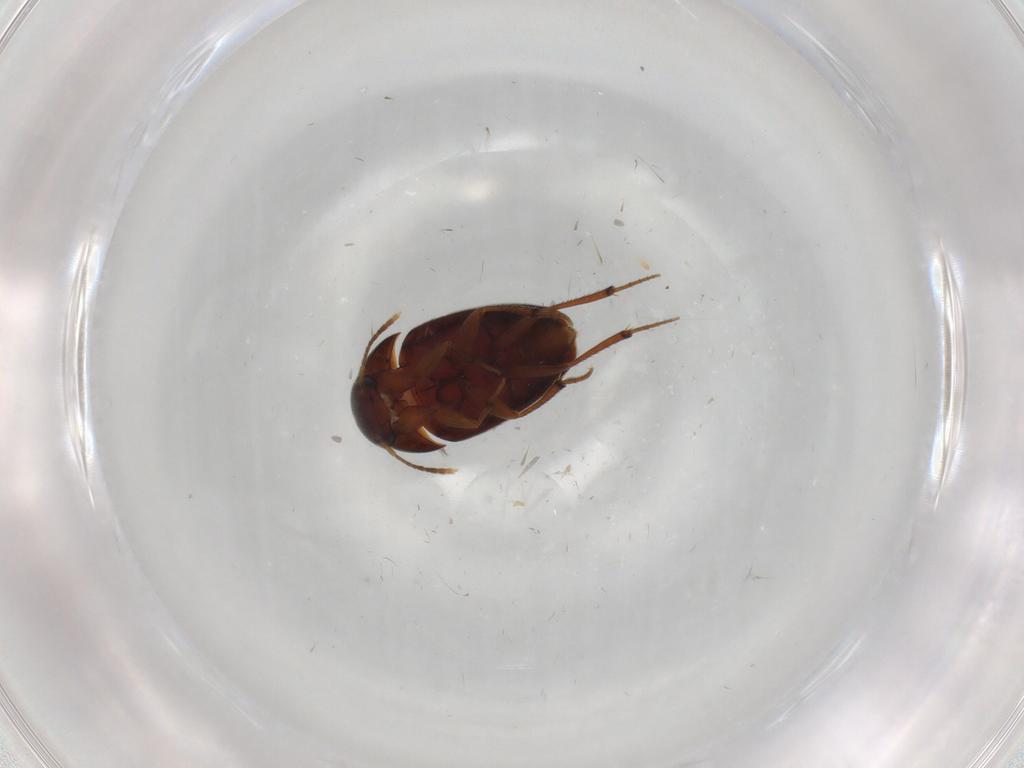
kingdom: Animalia
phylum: Arthropoda
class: Insecta
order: Coleoptera
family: Leiodidae
